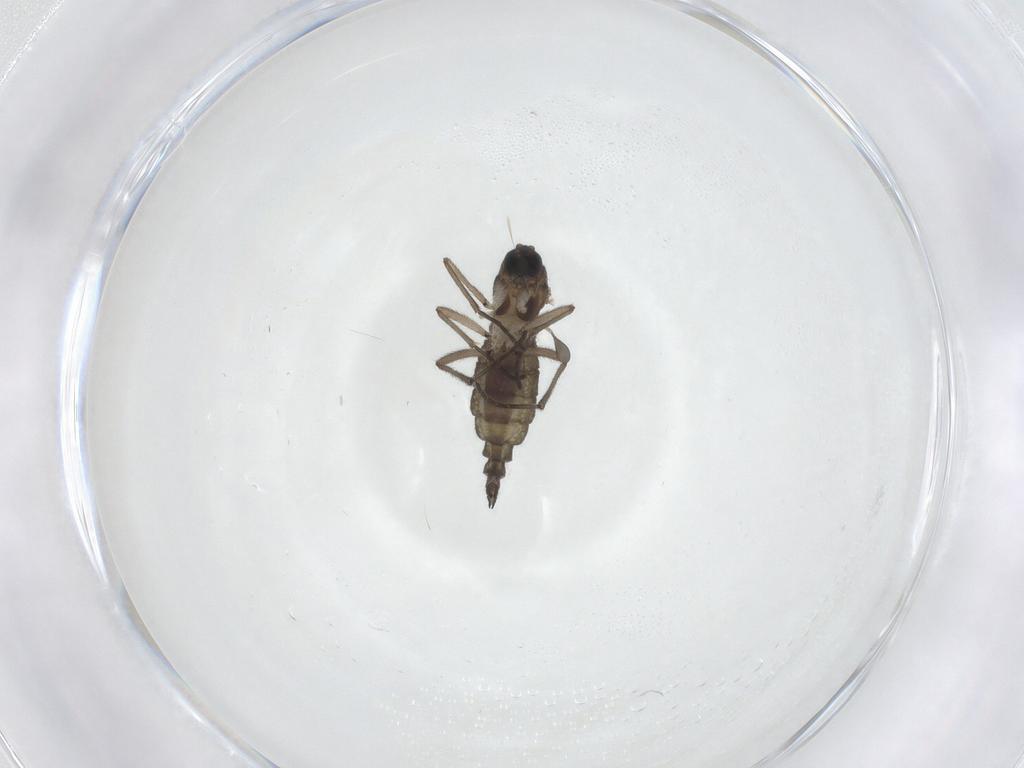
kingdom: Animalia
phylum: Arthropoda
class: Insecta
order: Diptera
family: Sciaridae
